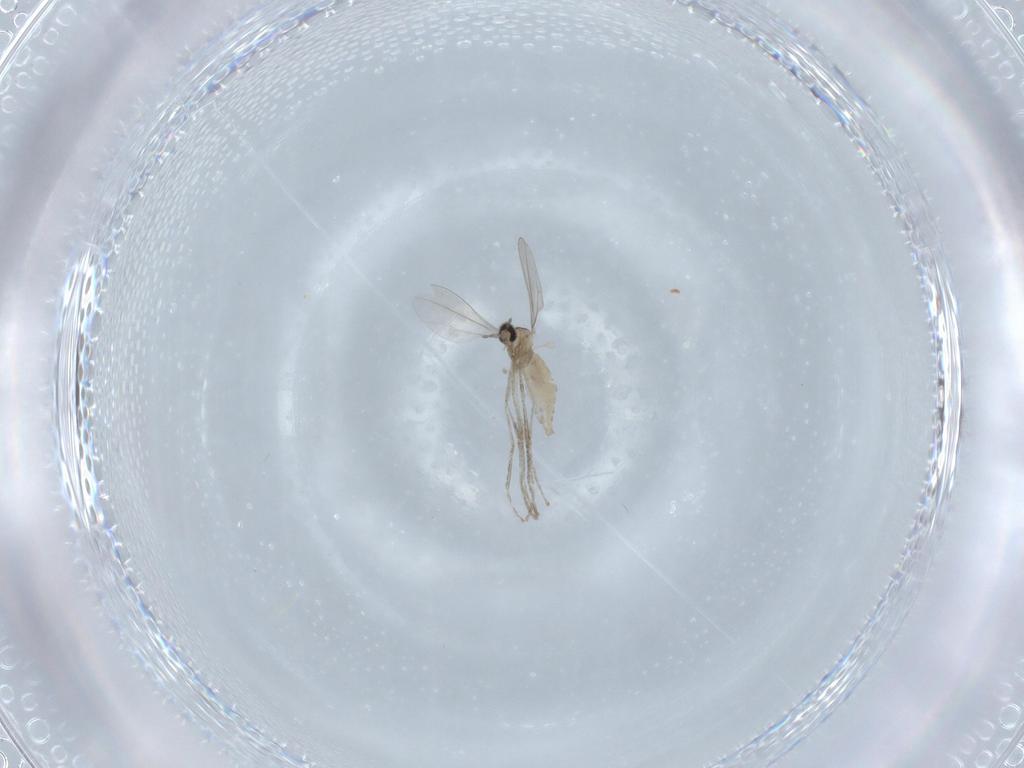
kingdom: Animalia
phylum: Arthropoda
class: Insecta
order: Diptera
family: Cecidomyiidae
